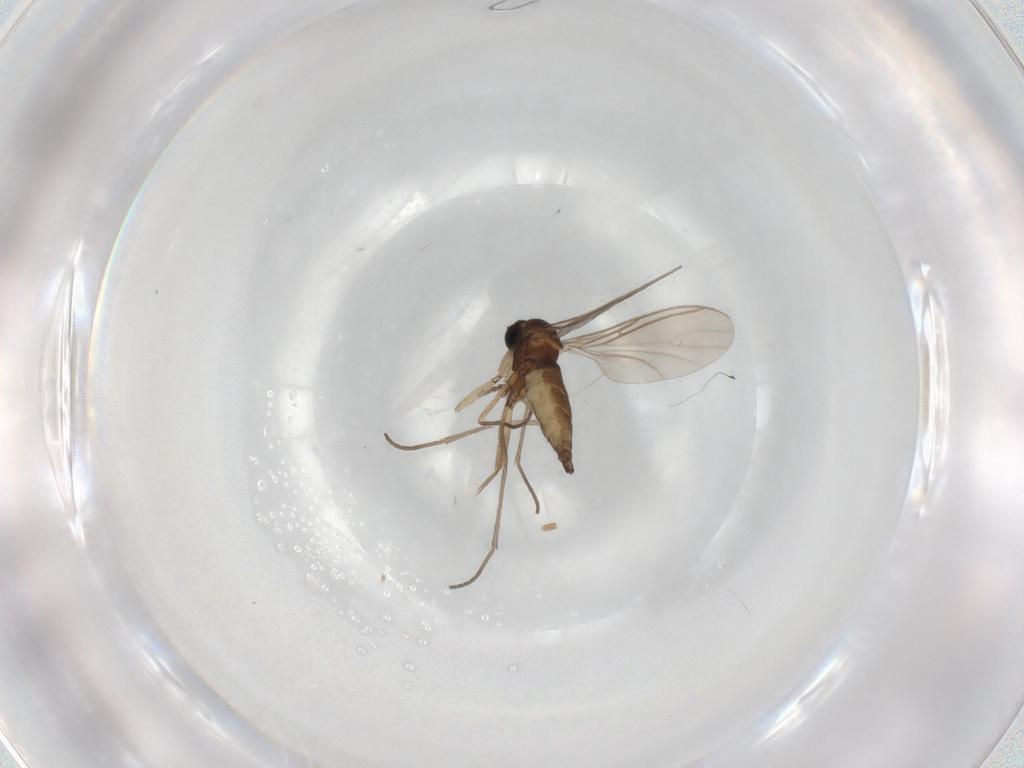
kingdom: Animalia
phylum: Arthropoda
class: Insecta
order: Diptera
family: Sciaridae
